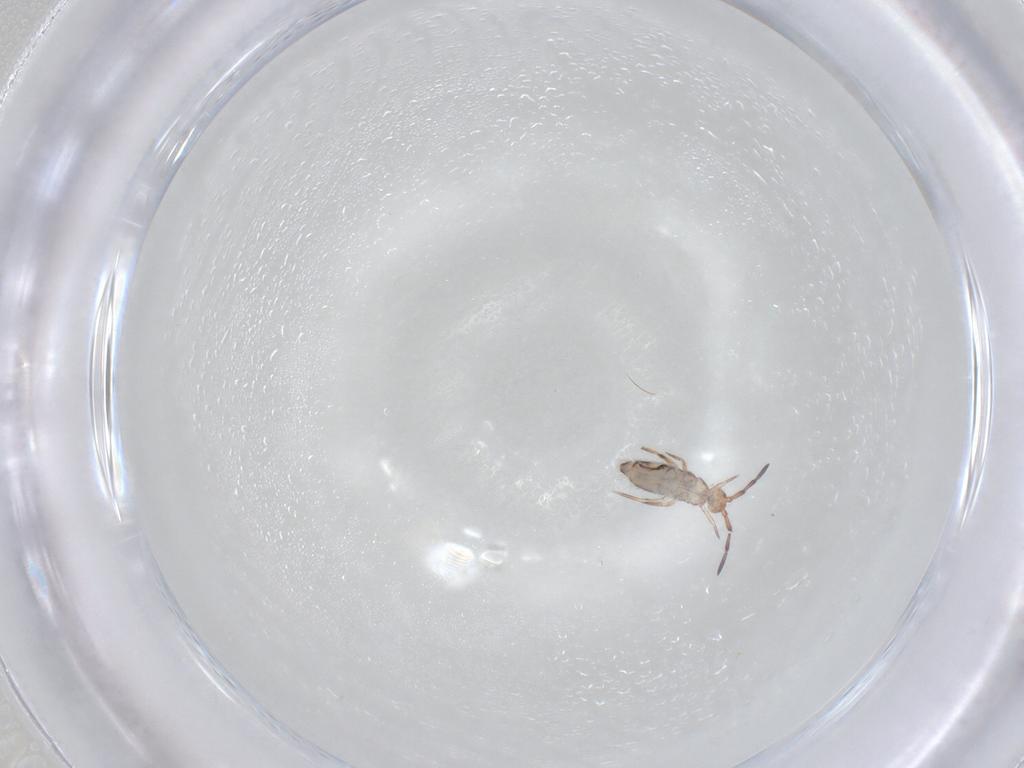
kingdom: Animalia
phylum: Arthropoda
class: Collembola
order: Entomobryomorpha
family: Entomobryidae
